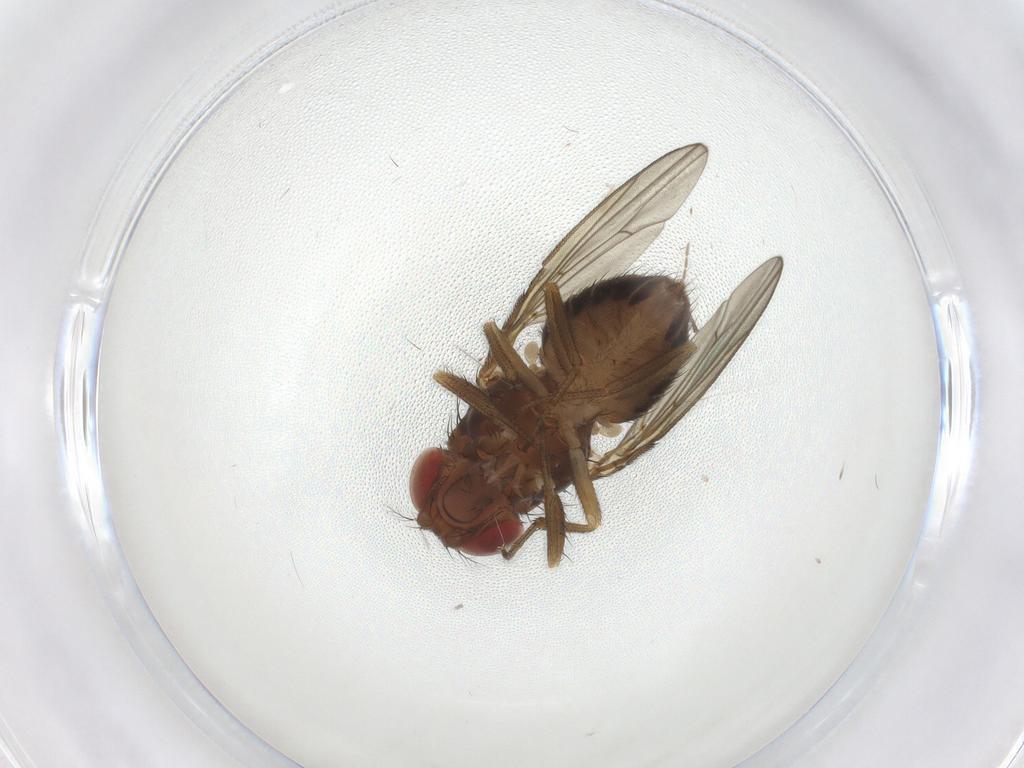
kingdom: Animalia
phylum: Arthropoda
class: Insecta
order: Diptera
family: Drosophilidae
